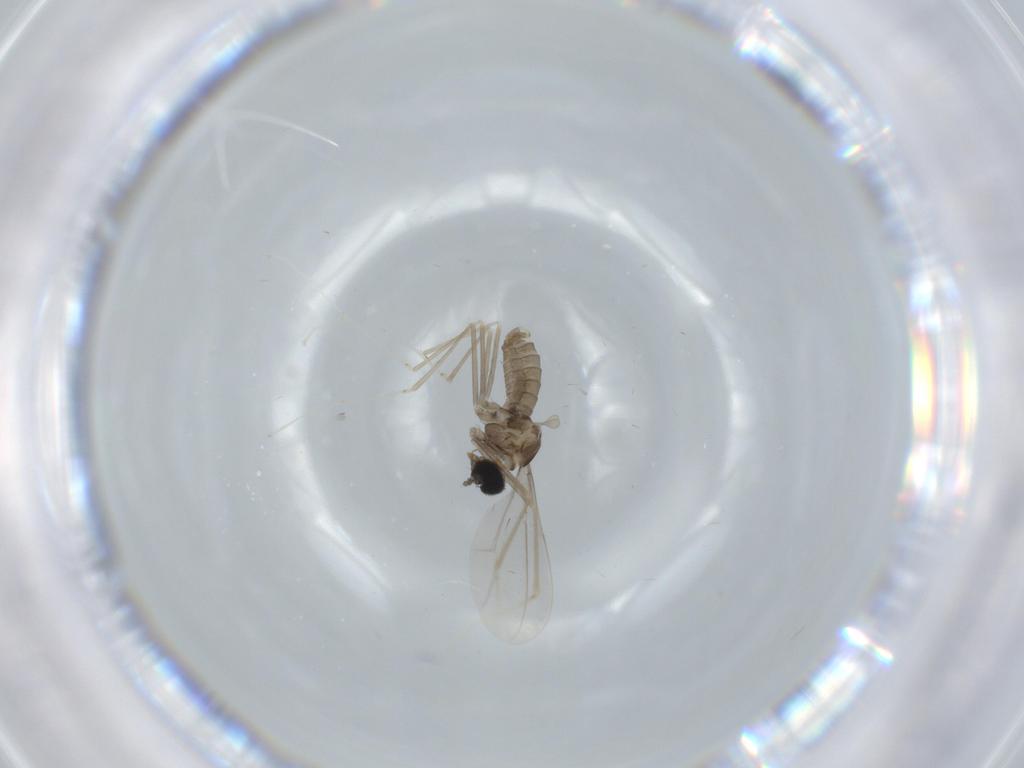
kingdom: Animalia
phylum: Arthropoda
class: Insecta
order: Diptera
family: Cecidomyiidae
